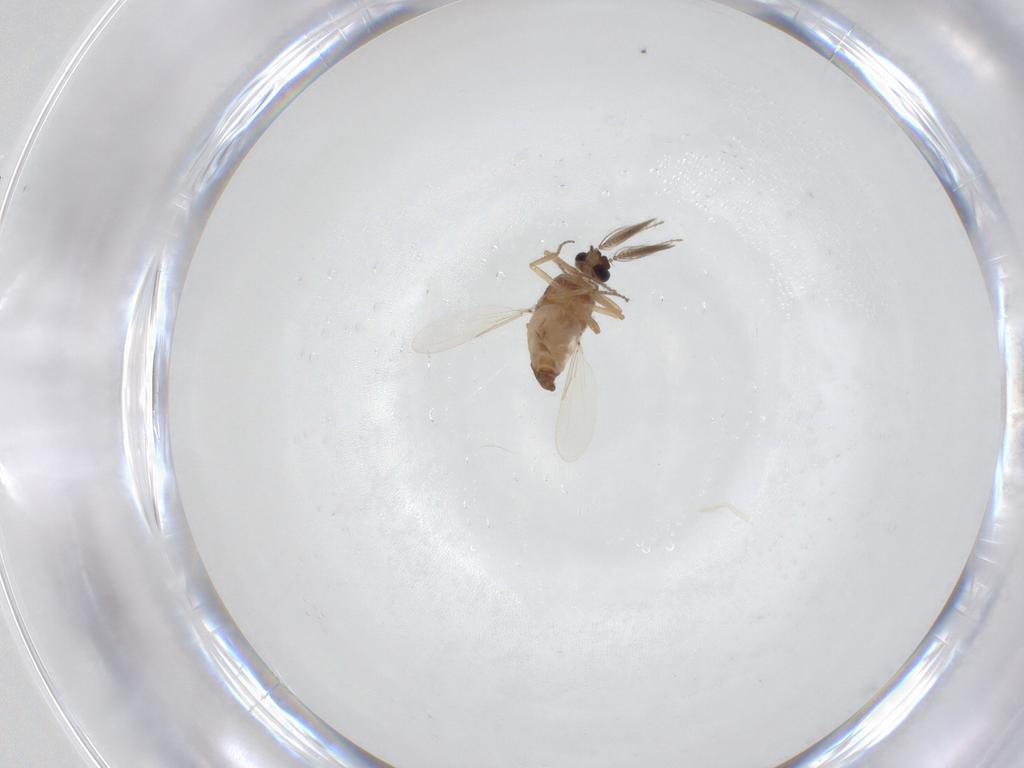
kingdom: Animalia
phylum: Arthropoda
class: Insecta
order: Diptera
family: Ceratopogonidae
